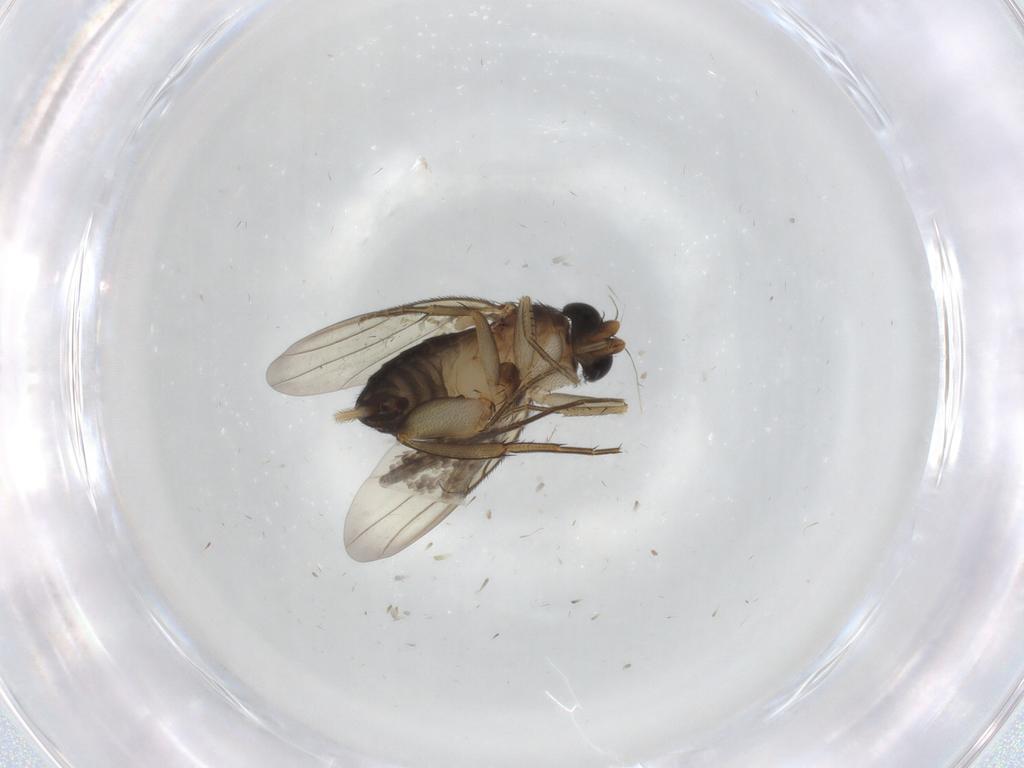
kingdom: Animalia
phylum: Arthropoda
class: Insecta
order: Diptera
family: Phoridae
